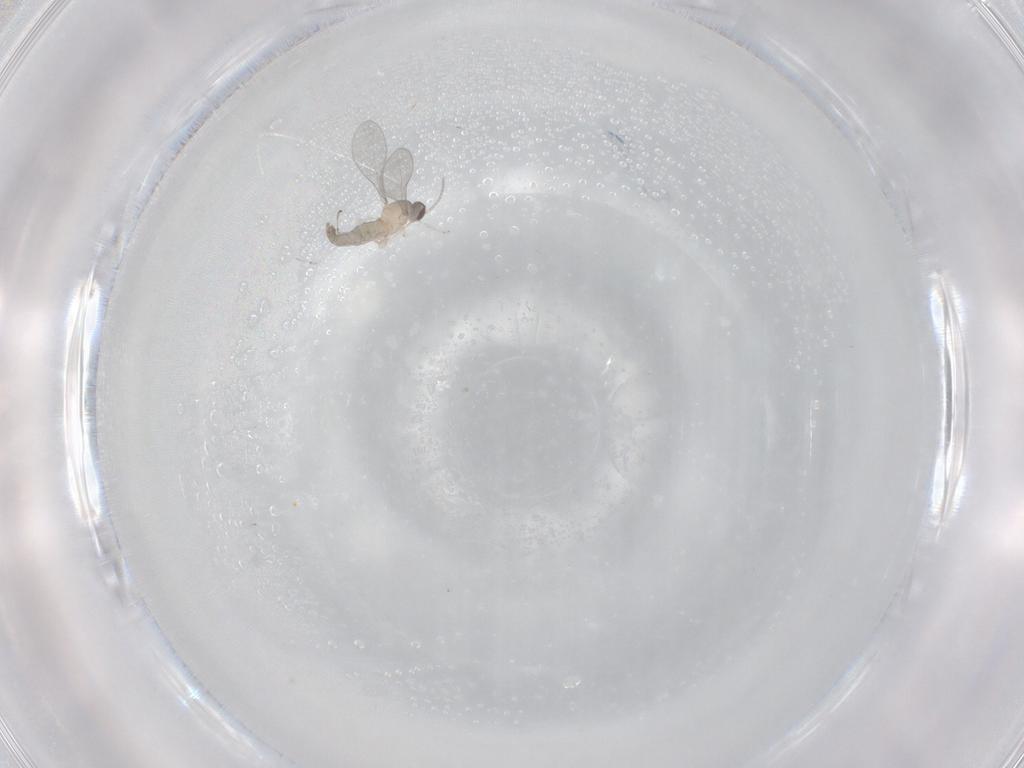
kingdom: Animalia
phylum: Arthropoda
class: Insecta
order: Diptera
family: Cecidomyiidae
